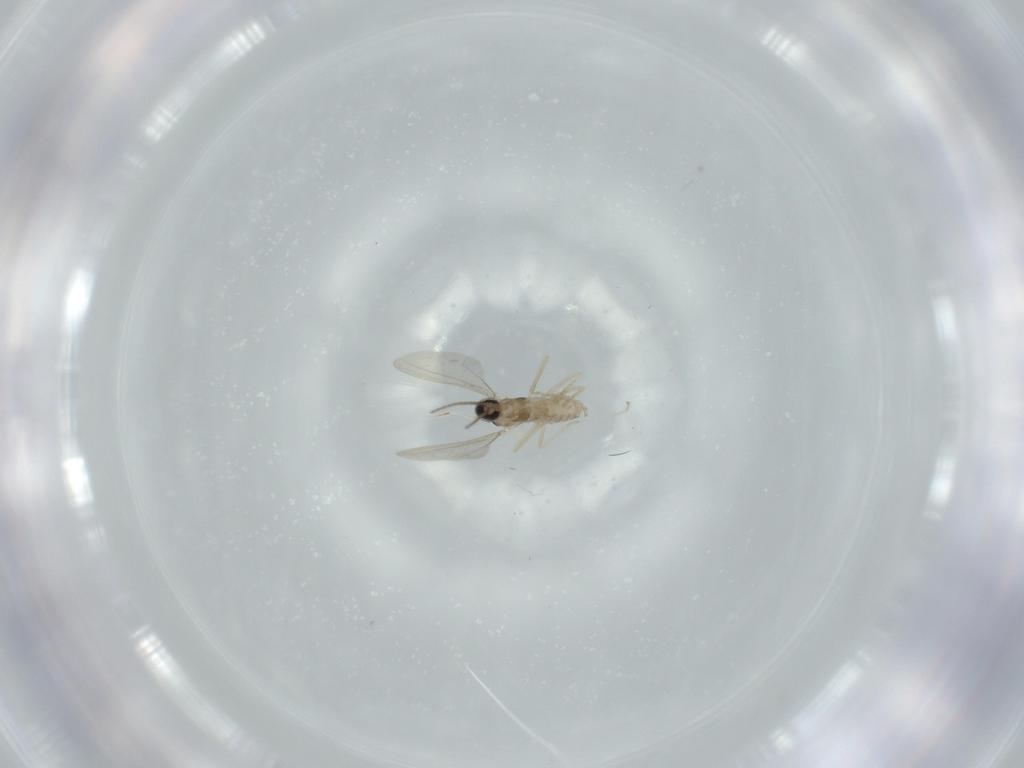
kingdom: Animalia
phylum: Arthropoda
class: Insecta
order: Diptera
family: Cecidomyiidae
